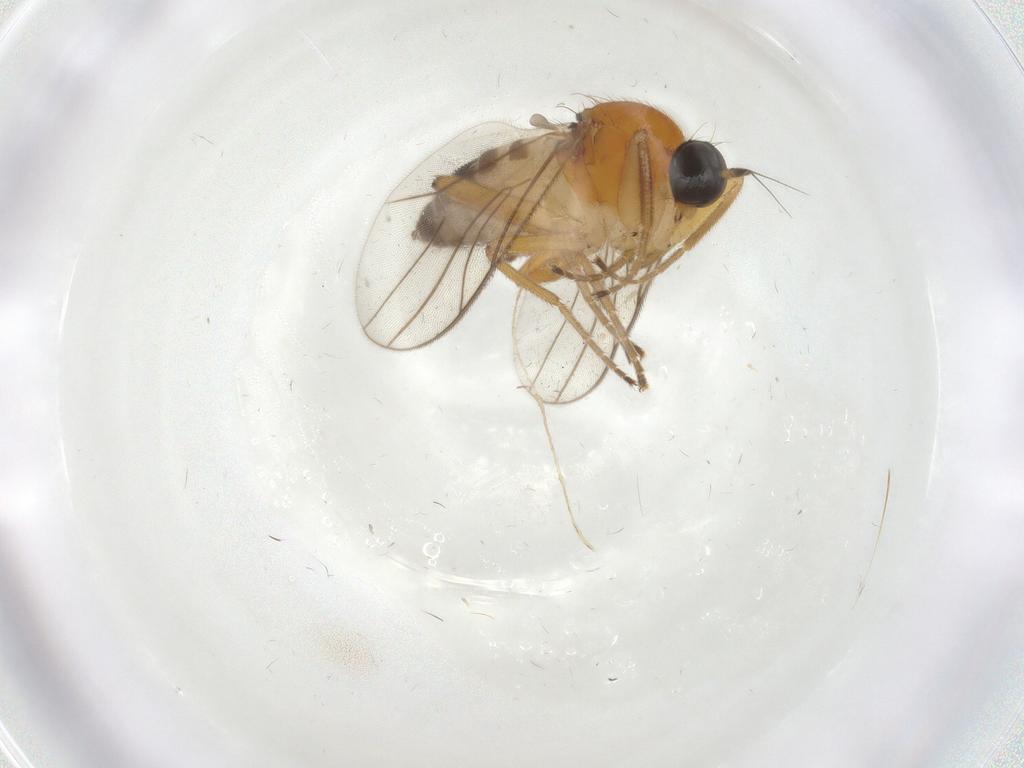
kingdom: Animalia
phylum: Arthropoda
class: Insecta
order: Diptera
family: Hybotidae
